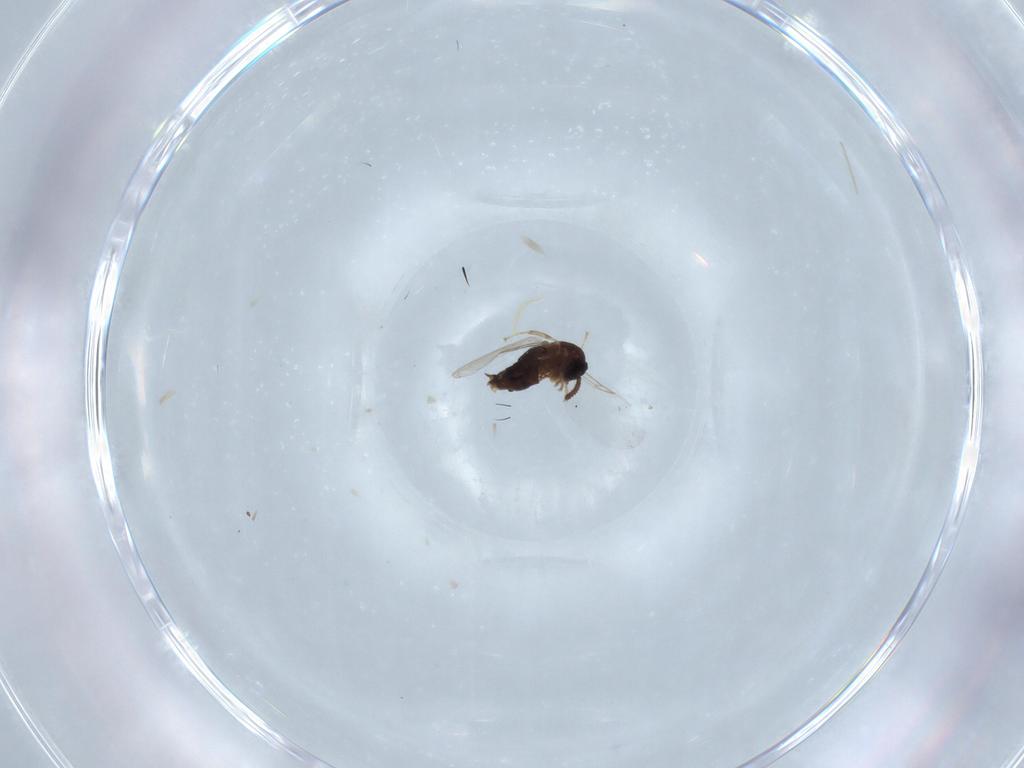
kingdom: Animalia
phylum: Arthropoda
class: Insecta
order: Diptera
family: Scatopsidae
